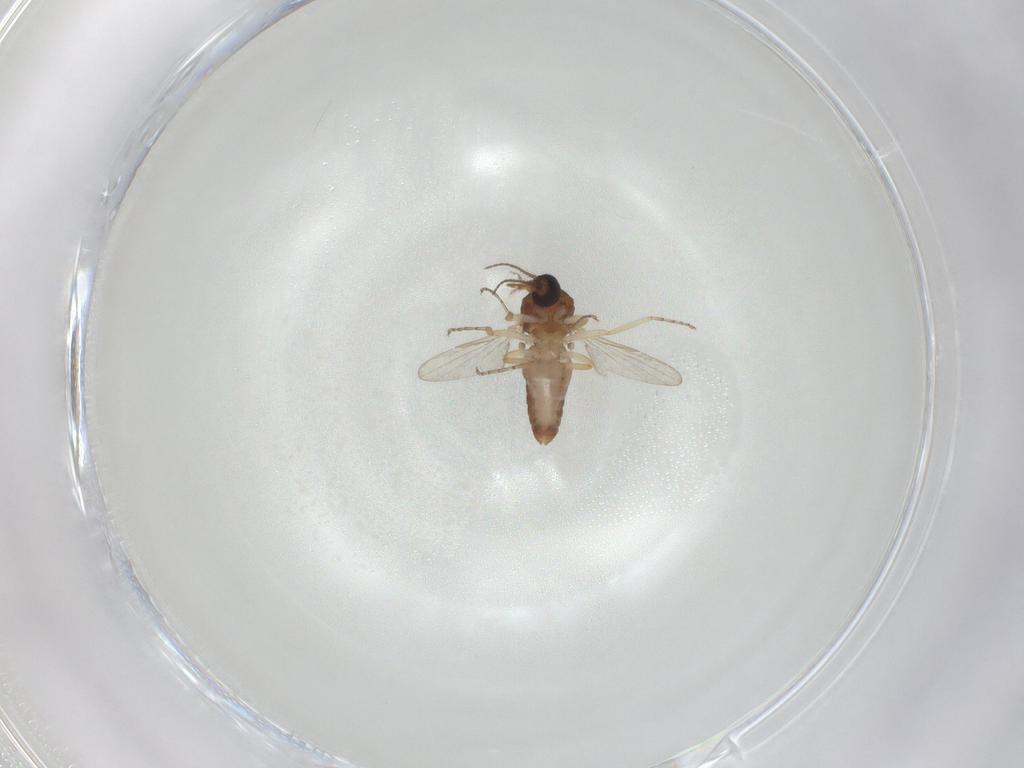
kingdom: Animalia
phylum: Arthropoda
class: Insecta
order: Diptera
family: Ceratopogonidae
